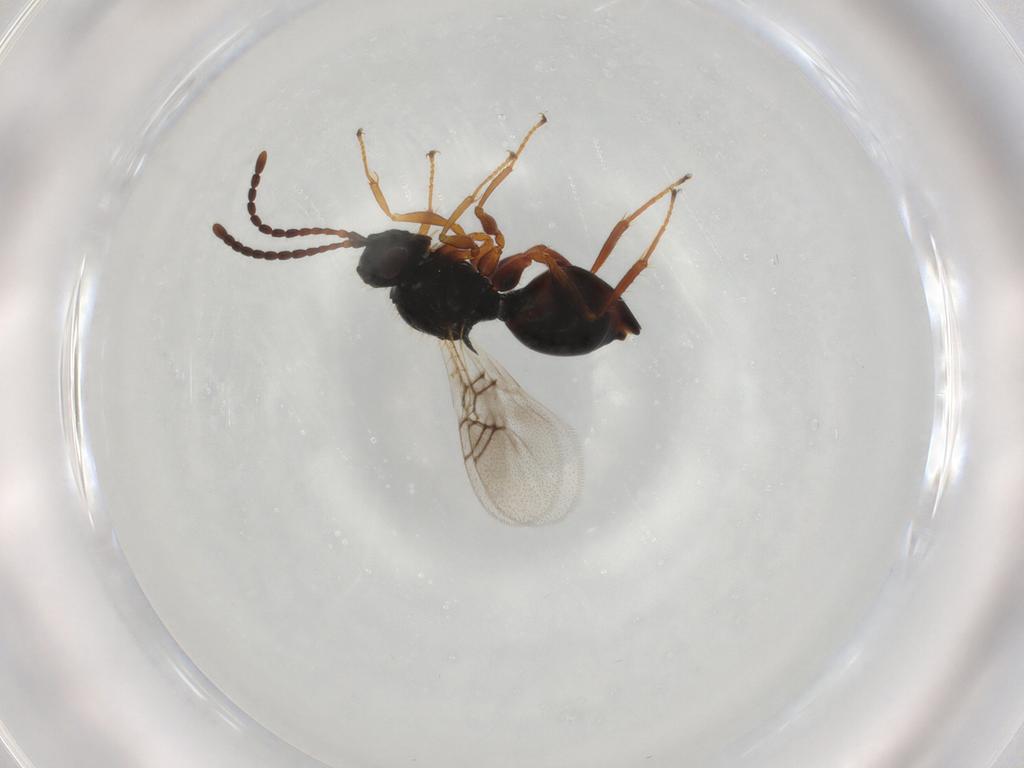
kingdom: Animalia
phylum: Arthropoda
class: Insecta
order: Hymenoptera
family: Figitidae
